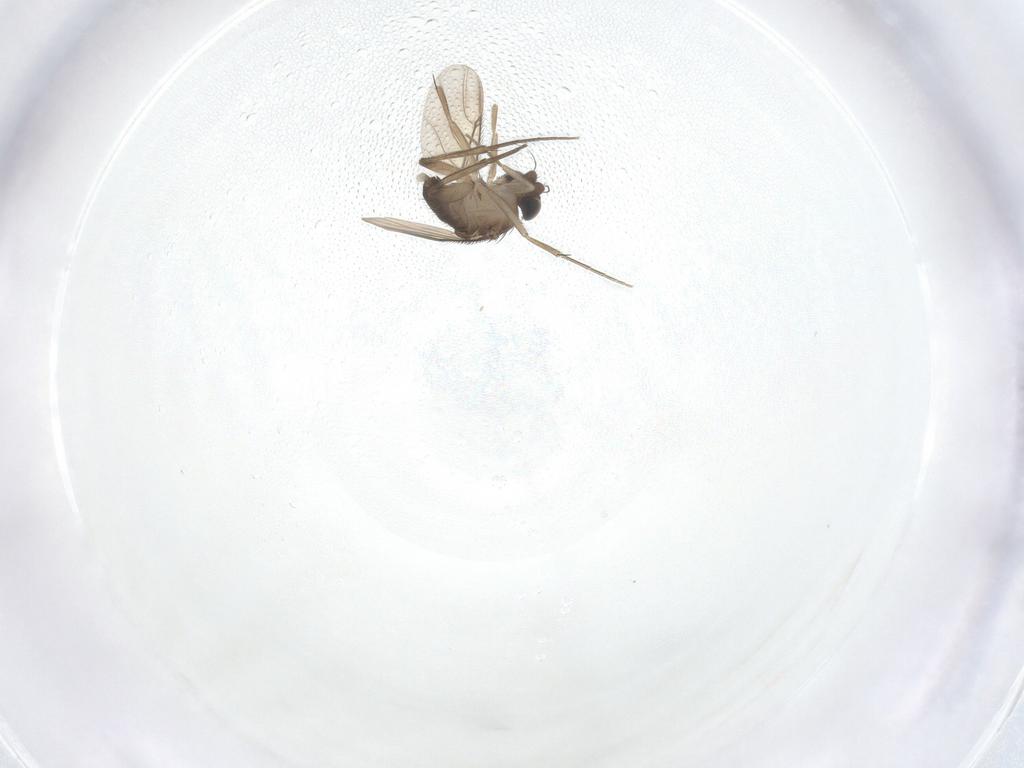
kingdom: Animalia
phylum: Arthropoda
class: Insecta
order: Diptera
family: Phoridae
